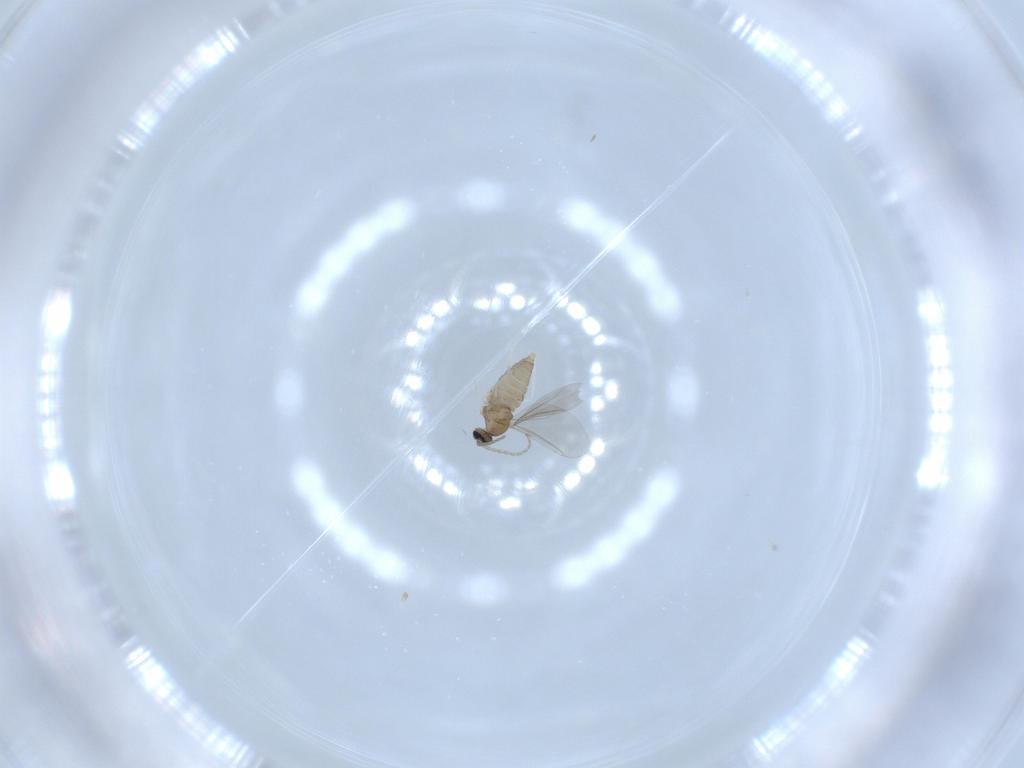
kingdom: Animalia
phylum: Arthropoda
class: Insecta
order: Diptera
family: Cecidomyiidae
